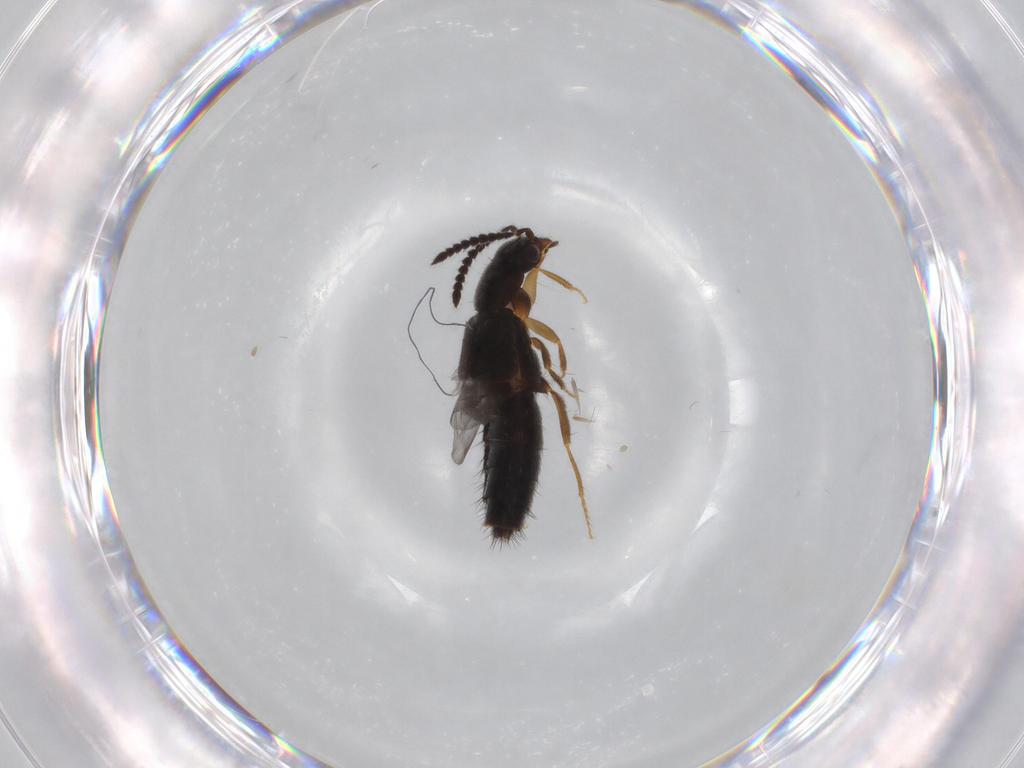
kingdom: Animalia
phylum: Arthropoda
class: Insecta
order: Coleoptera
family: Staphylinidae
